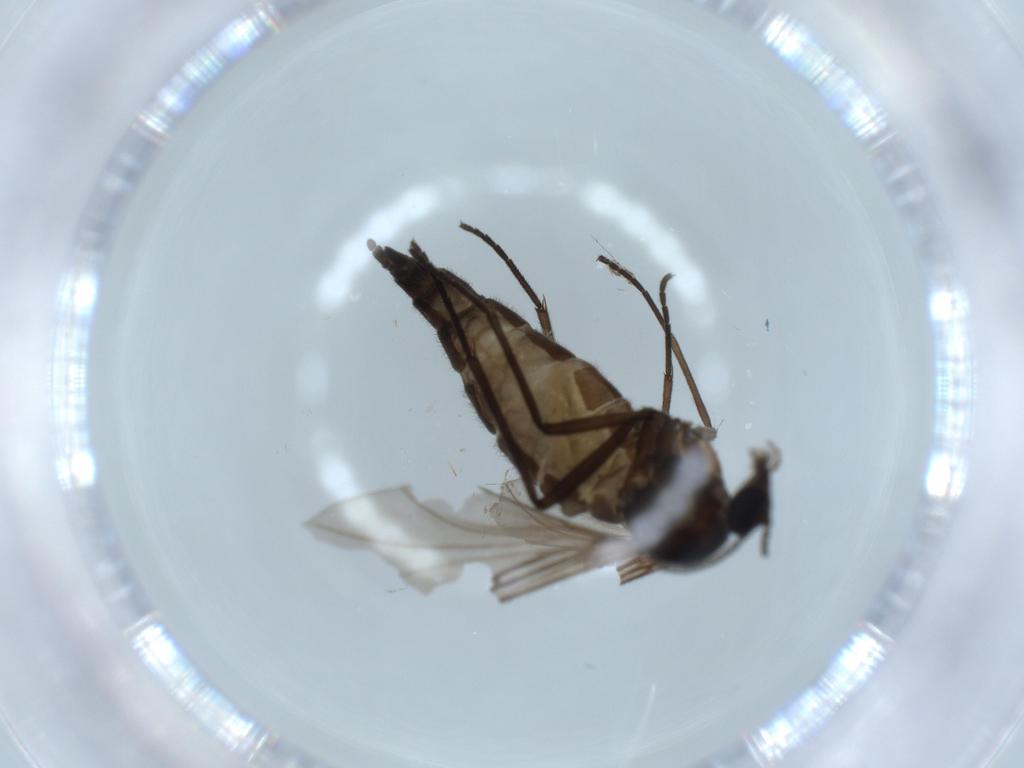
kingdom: Animalia
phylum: Arthropoda
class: Insecta
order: Diptera
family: Sciaridae
